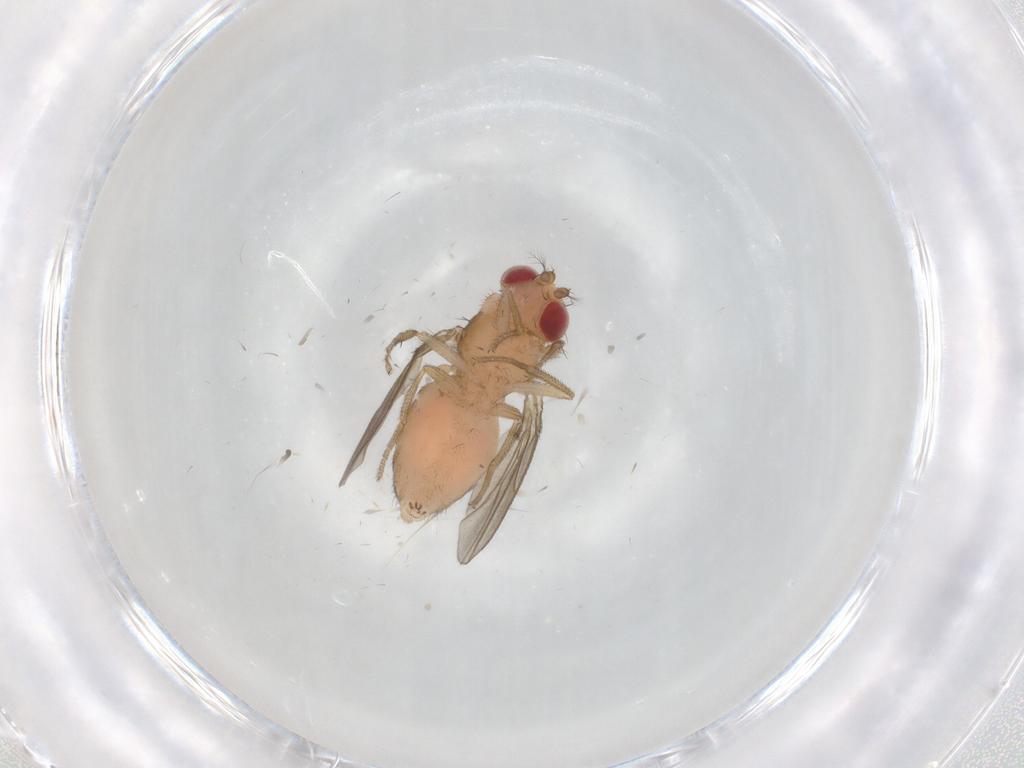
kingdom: Animalia
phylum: Arthropoda
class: Insecta
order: Diptera
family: Drosophilidae
